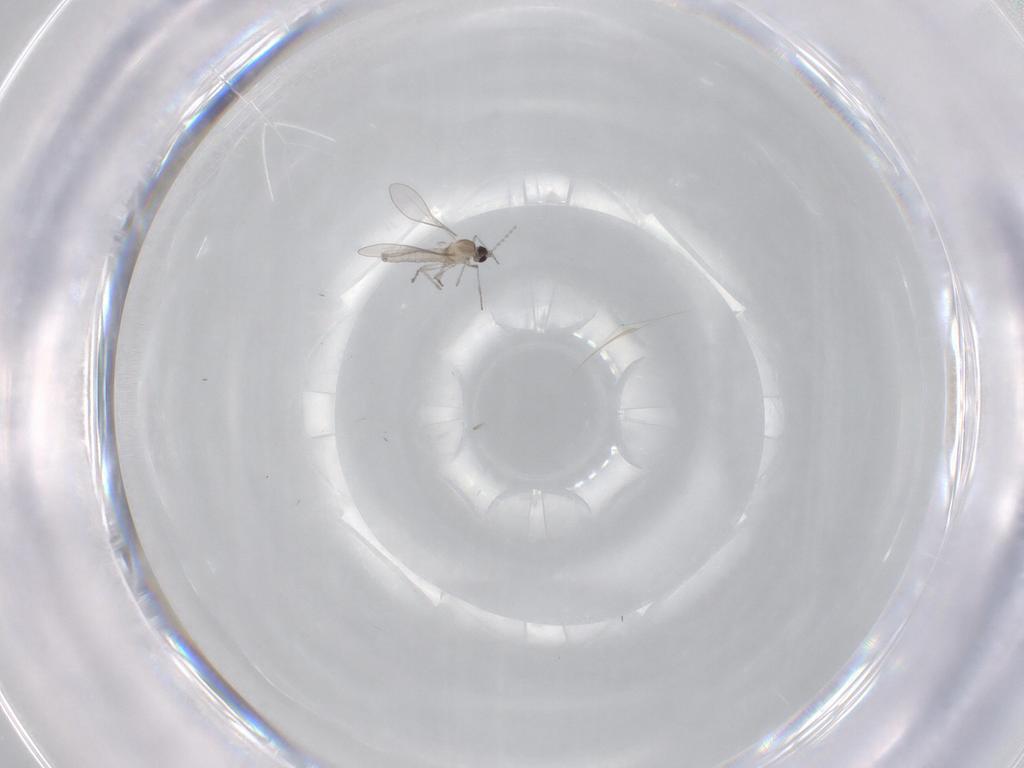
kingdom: Animalia
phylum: Arthropoda
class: Insecta
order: Diptera
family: Cecidomyiidae
